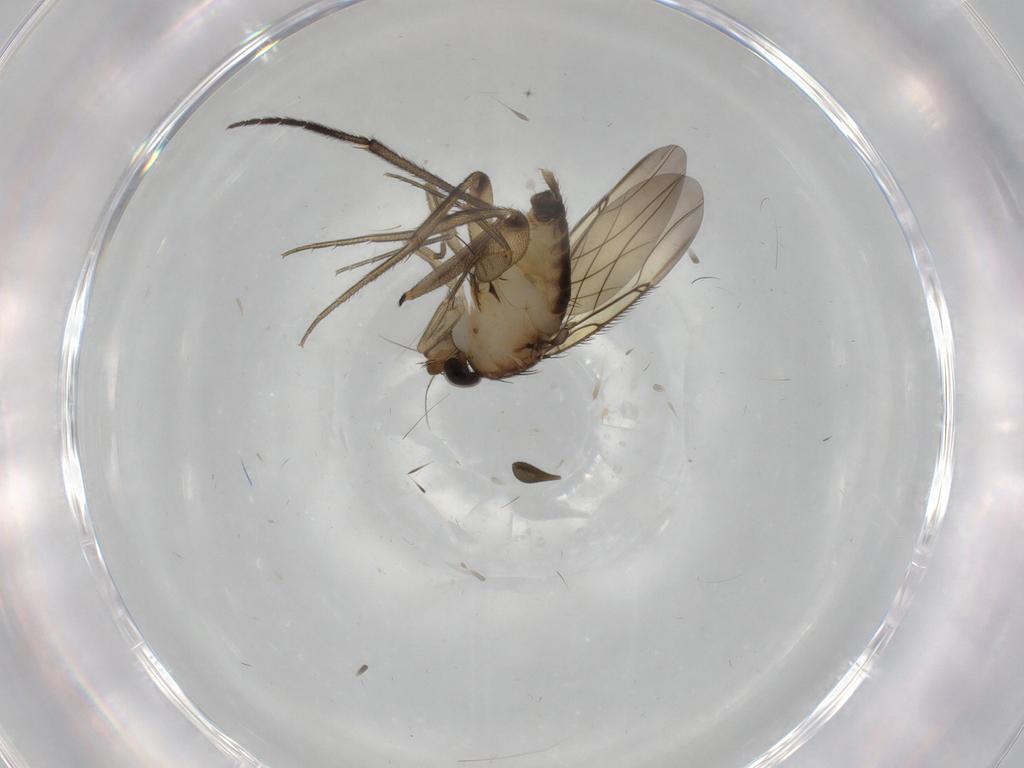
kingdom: Animalia
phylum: Arthropoda
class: Insecta
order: Diptera
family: Phoridae
